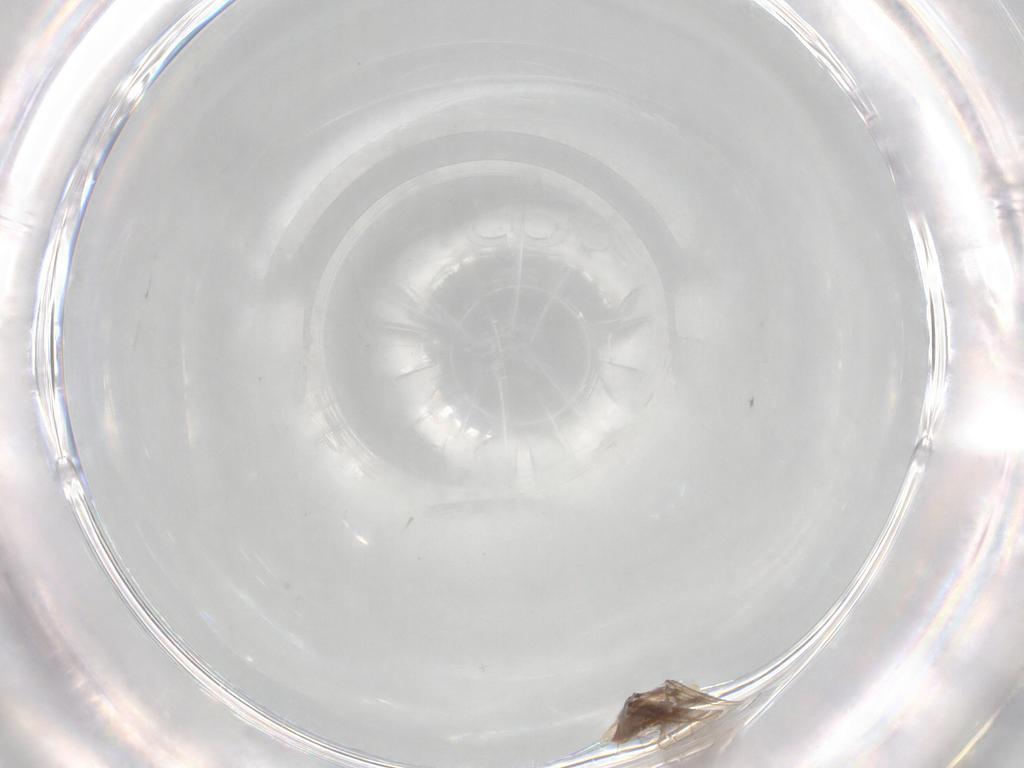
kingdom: Animalia
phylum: Arthropoda
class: Insecta
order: Diptera
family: Sciaridae
